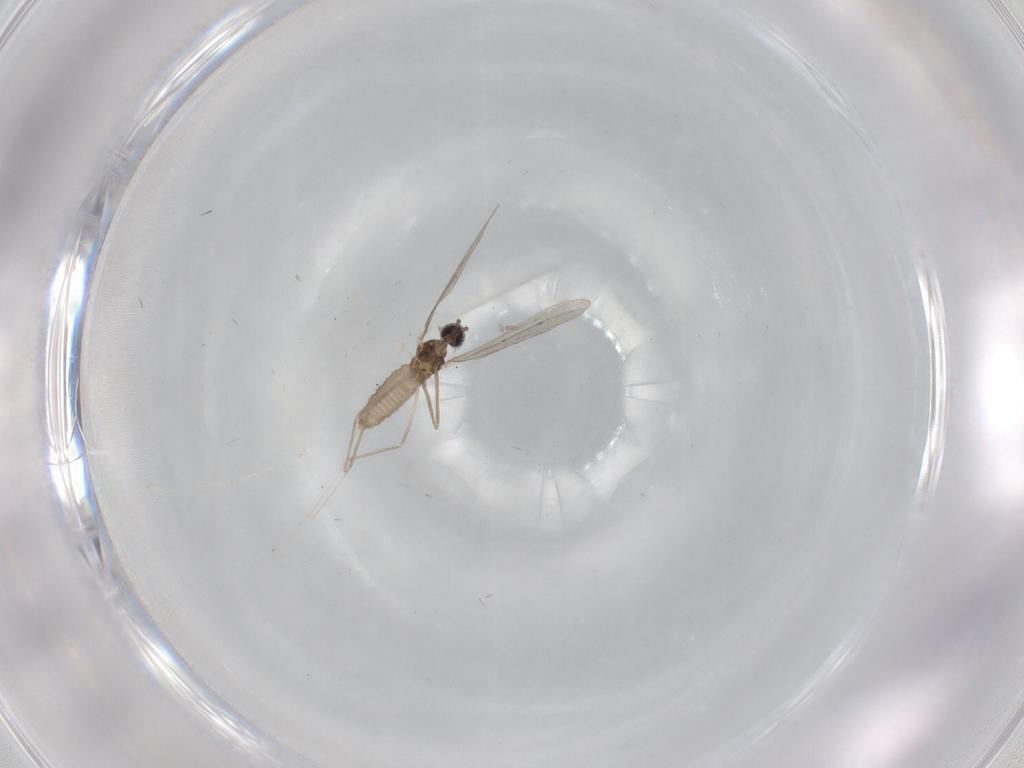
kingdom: Animalia
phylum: Arthropoda
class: Insecta
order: Diptera
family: Cecidomyiidae
